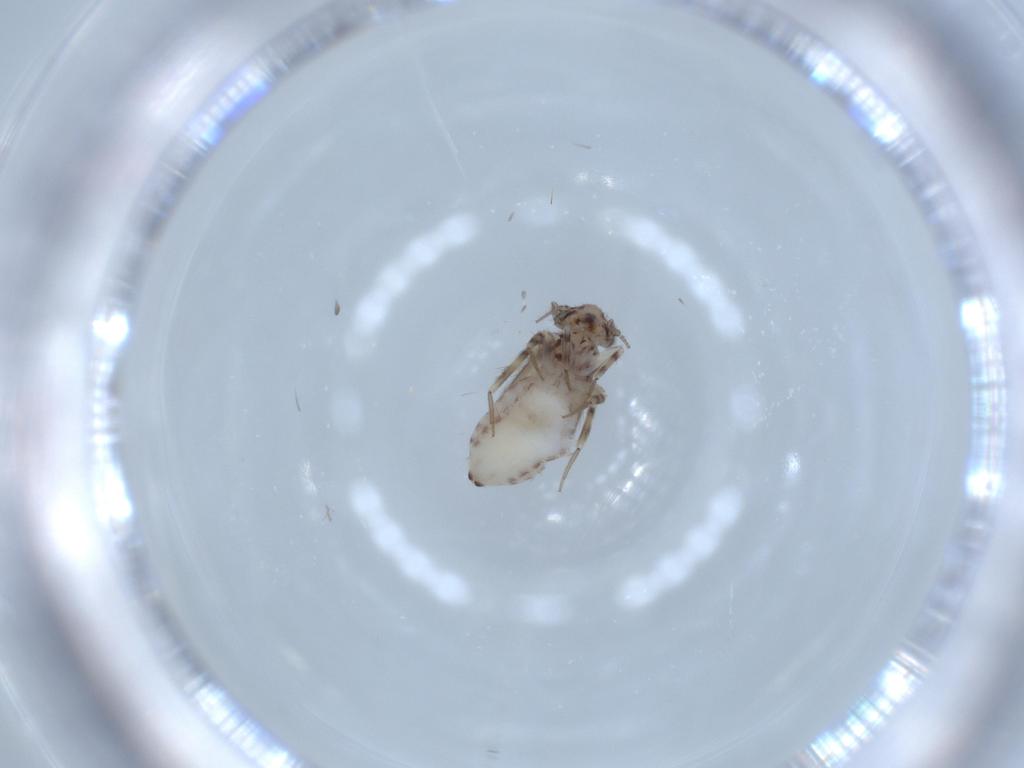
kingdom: Animalia
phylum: Arthropoda
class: Insecta
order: Psocodea
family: Lepidopsocidae
